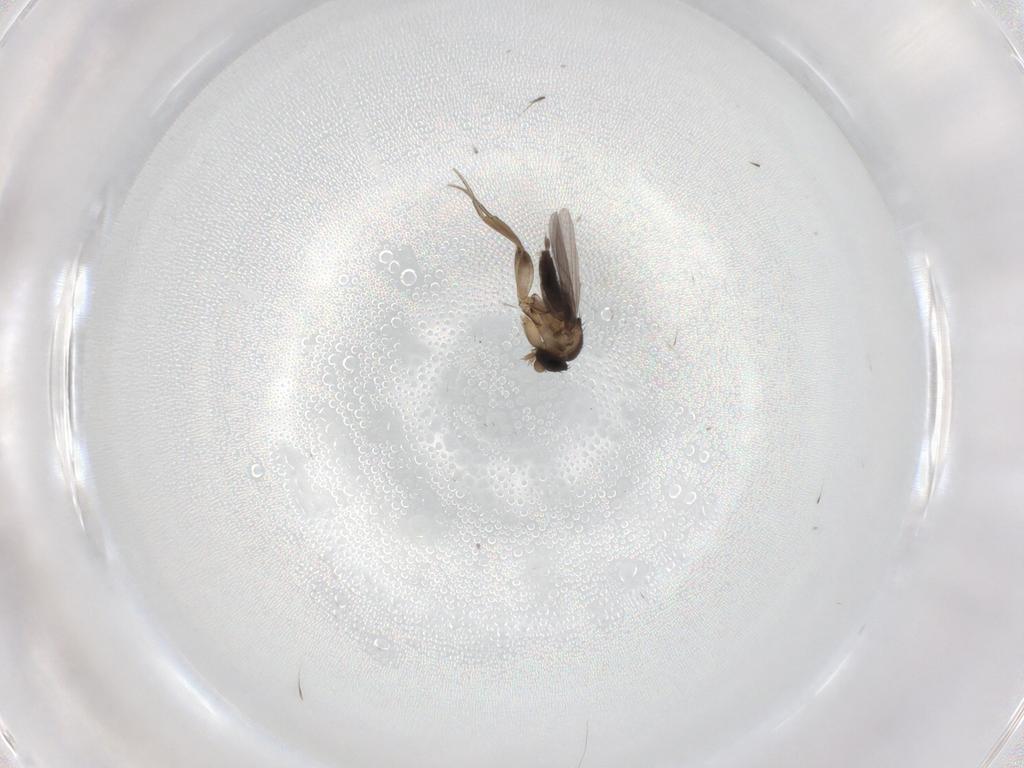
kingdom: Animalia
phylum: Arthropoda
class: Insecta
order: Diptera
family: Phoridae
